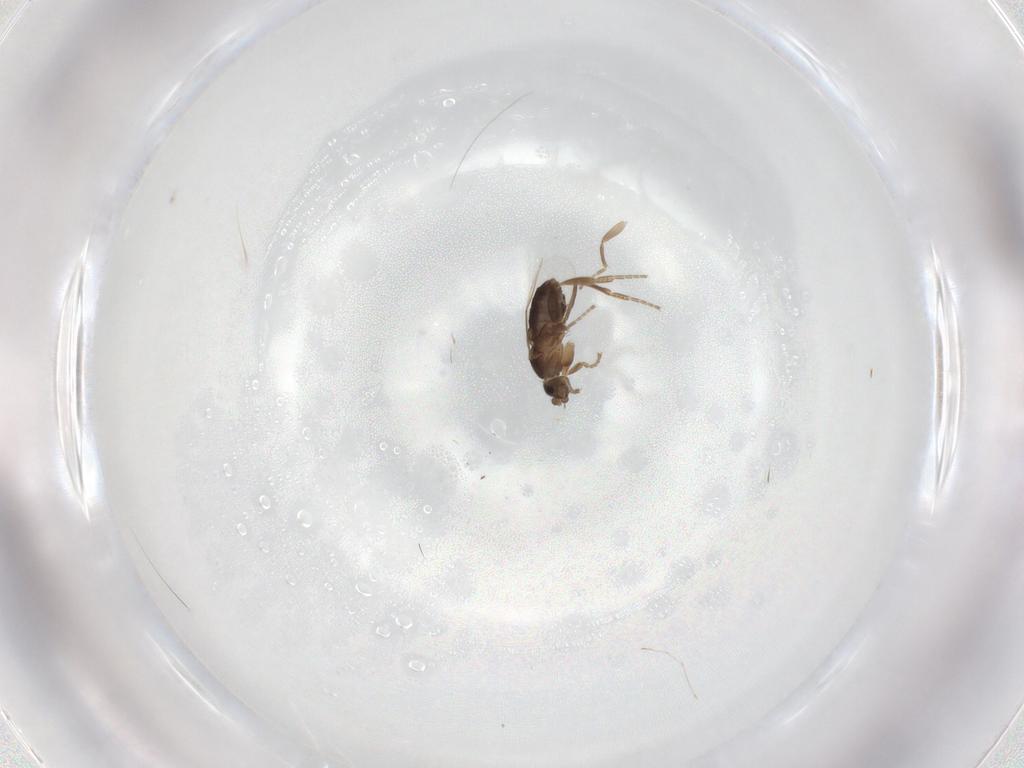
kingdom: Animalia
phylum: Arthropoda
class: Insecta
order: Diptera
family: Phoridae
